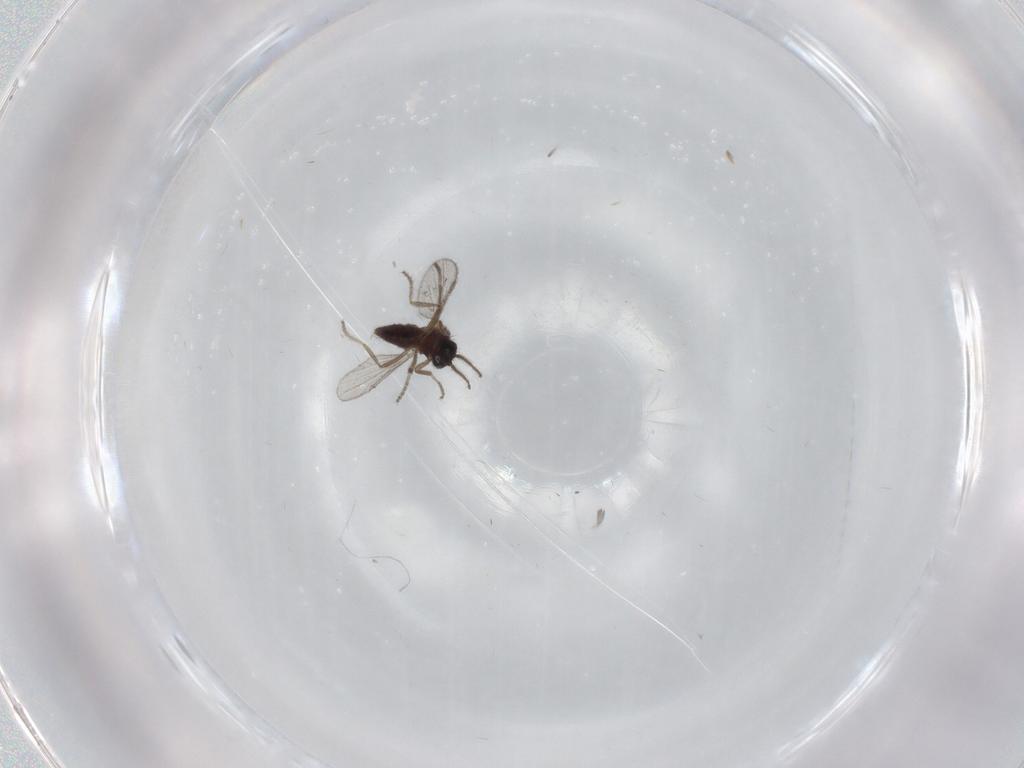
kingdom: Animalia
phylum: Arthropoda
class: Insecta
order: Diptera
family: Ceratopogonidae
